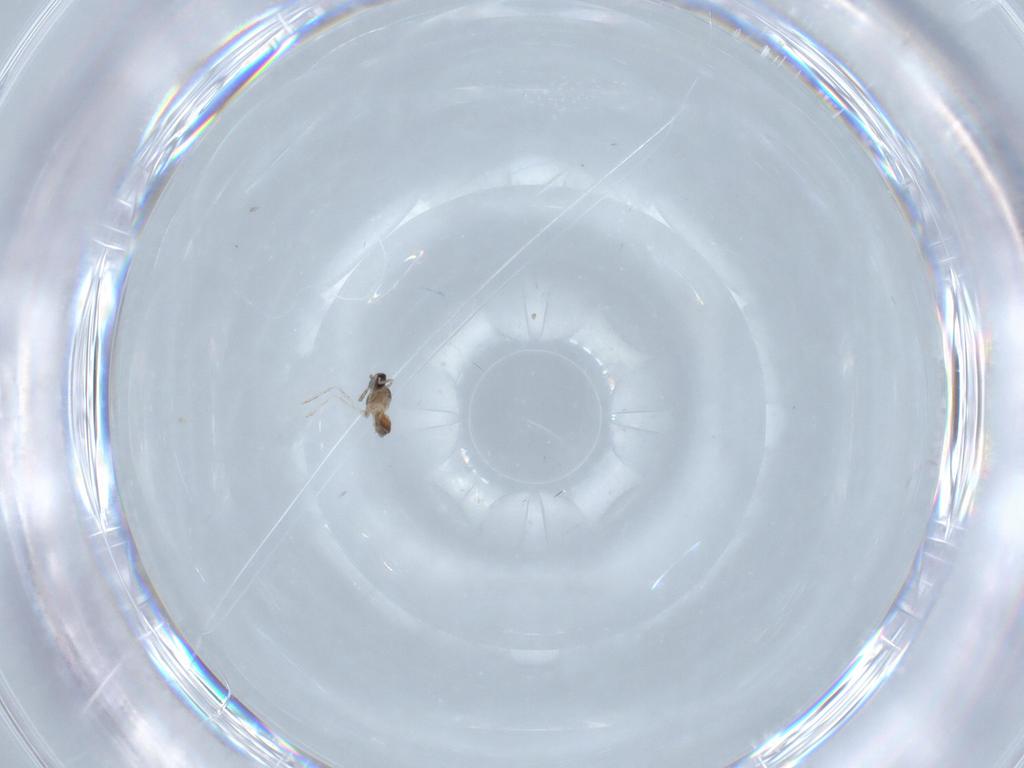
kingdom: Animalia
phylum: Arthropoda
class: Insecta
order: Diptera
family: Cecidomyiidae
